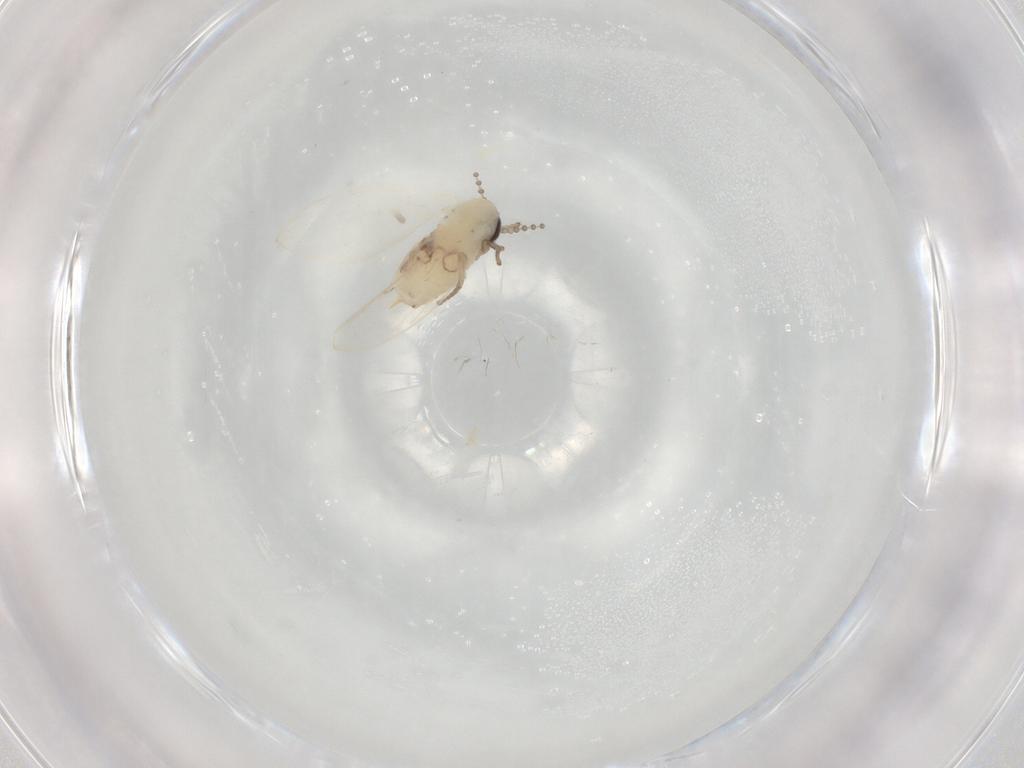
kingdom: Animalia
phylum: Arthropoda
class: Insecta
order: Diptera
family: Psychodidae
